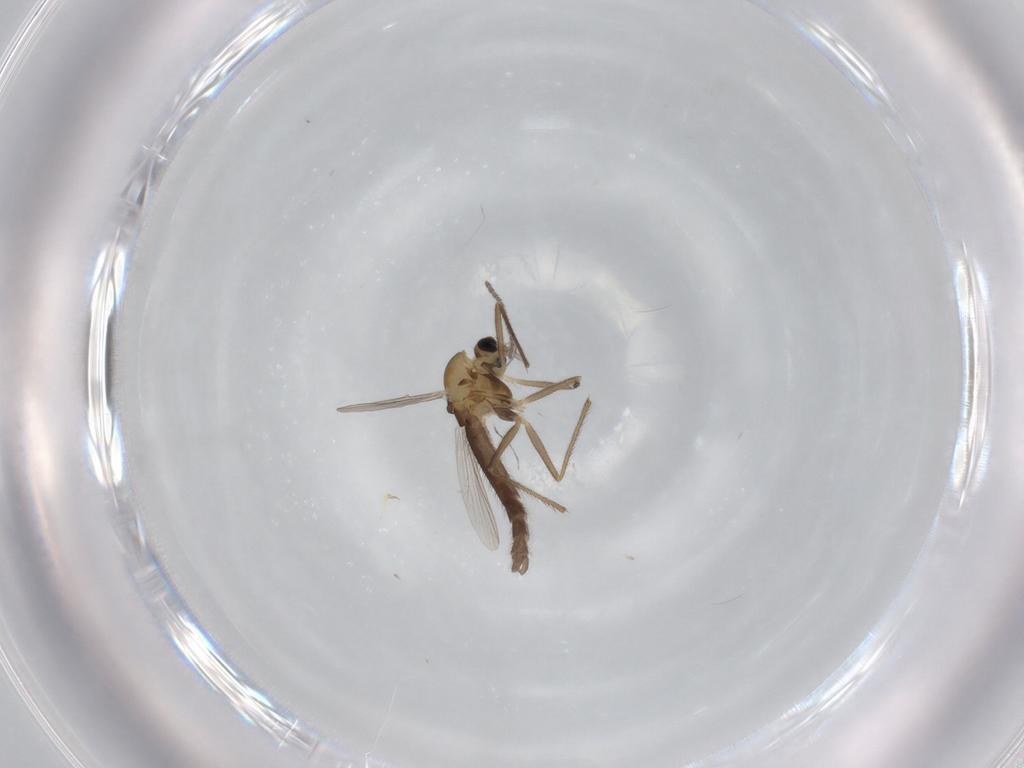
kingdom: Animalia
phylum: Arthropoda
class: Insecta
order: Diptera
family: Chironomidae
